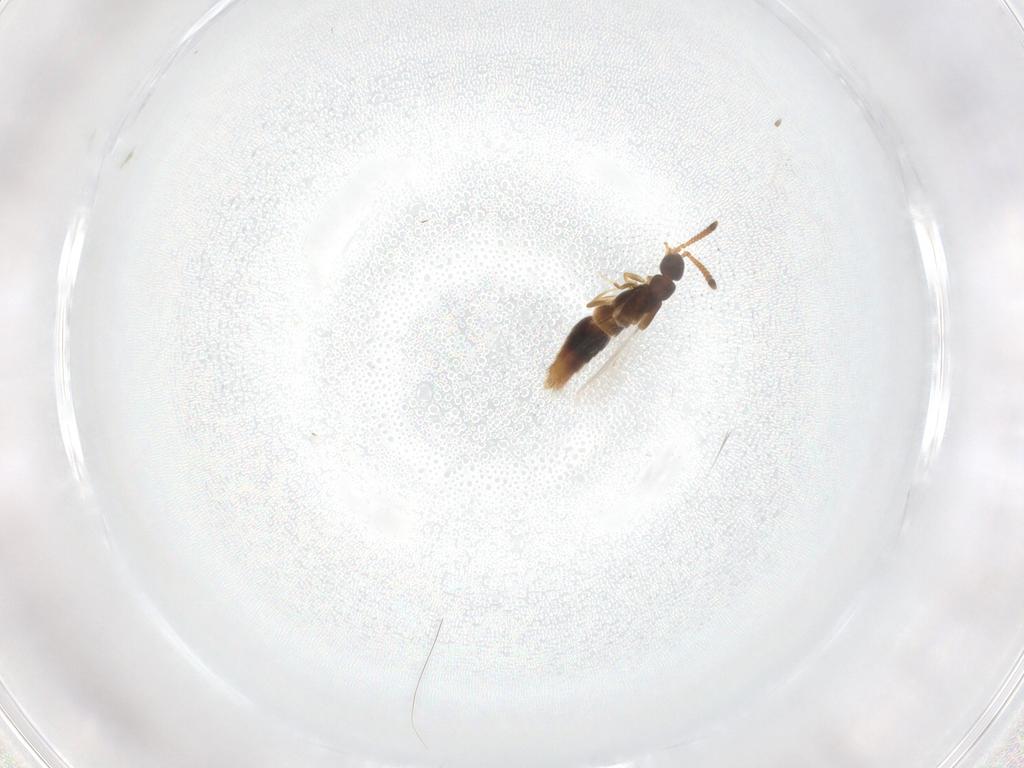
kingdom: Animalia
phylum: Arthropoda
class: Insecta
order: Coleoptera
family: Staphylinidae
